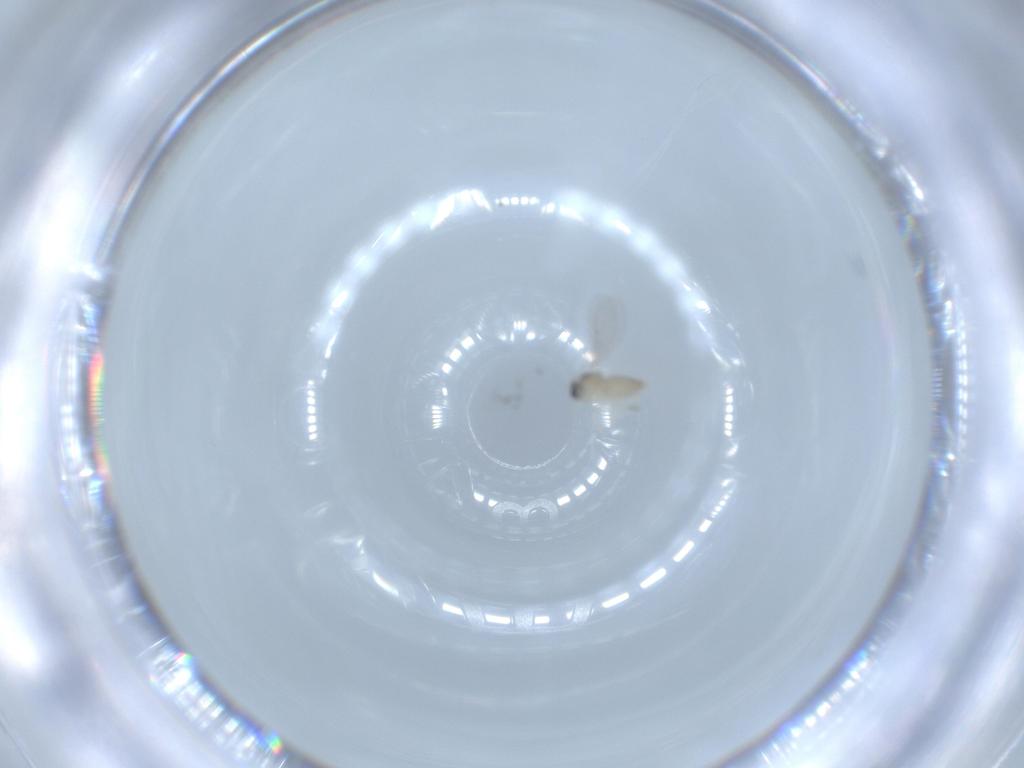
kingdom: Animalia
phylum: Arthropoda
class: Insecta
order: Diptera
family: Cecidomyiidae
